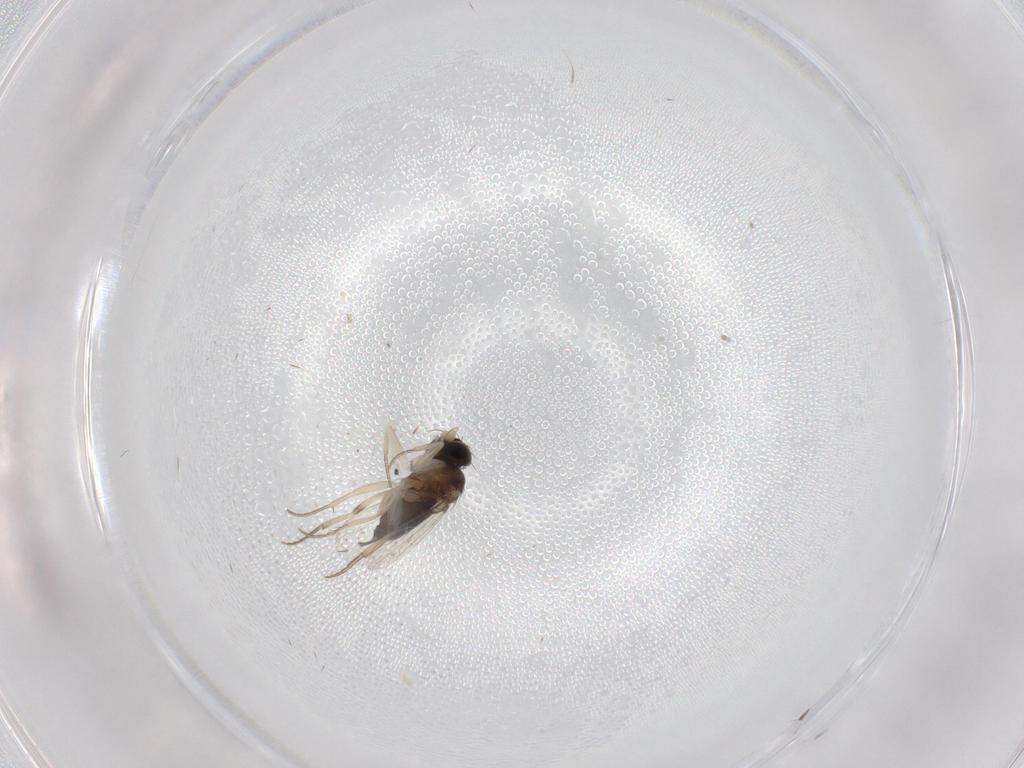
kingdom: Animalia
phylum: Arthropoda
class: Insecta
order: Diptera
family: Phoridae
